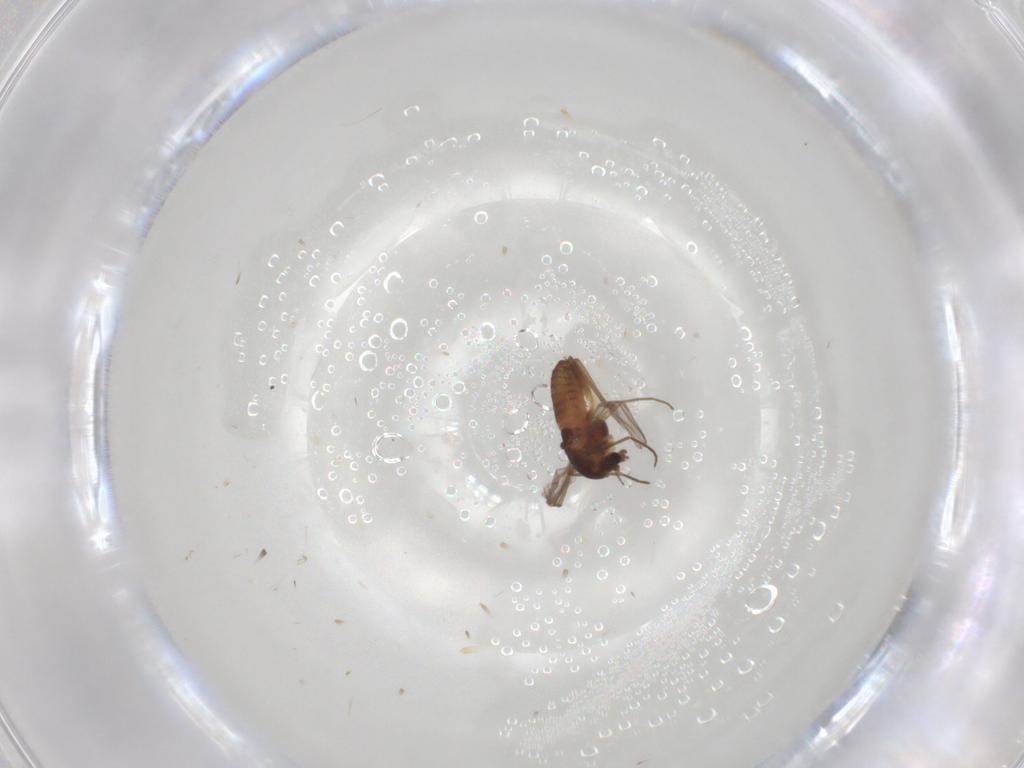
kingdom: Animalia
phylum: Arthropoda
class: Insecta
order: Diptera
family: Chironomidae
